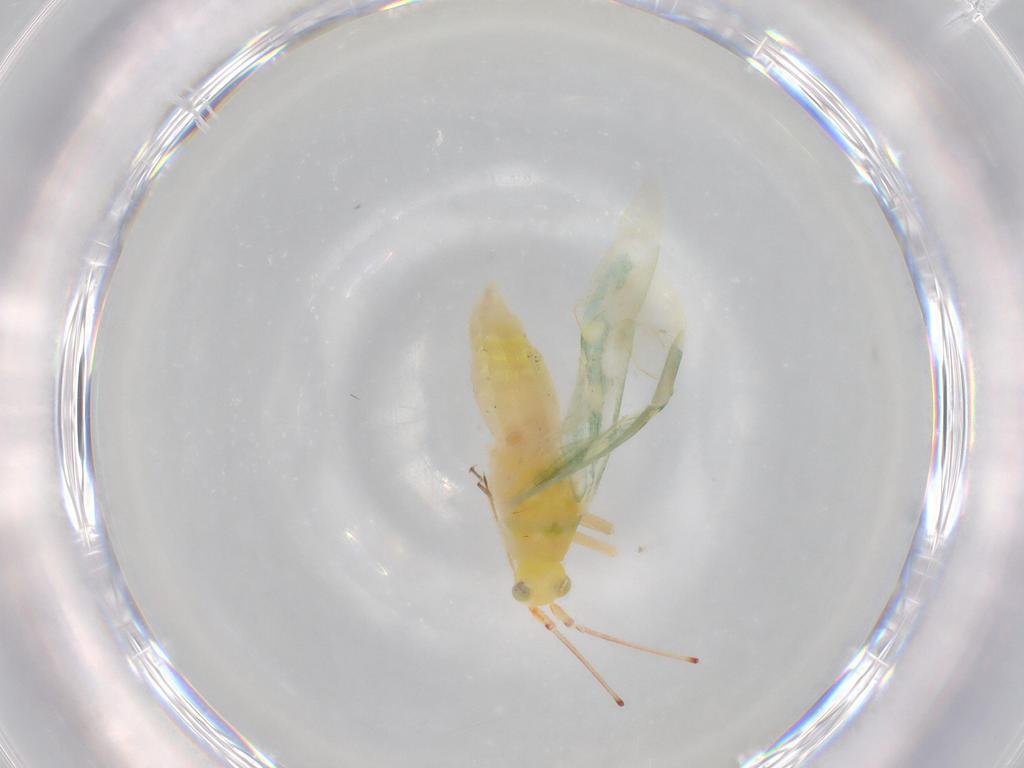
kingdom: Animalia
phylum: Arthropoda
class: Insecta
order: Hemiptera
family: Miridae
